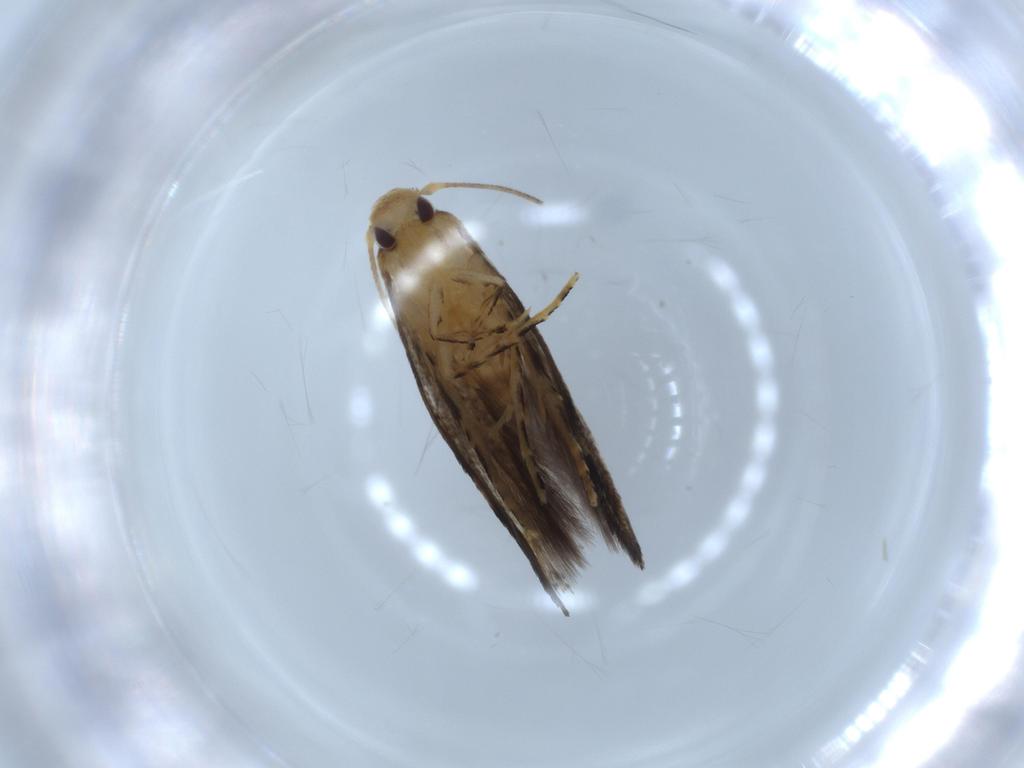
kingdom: Animalia
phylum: Arthropoda
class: Insecta
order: Lepidoptera
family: Momphidae
